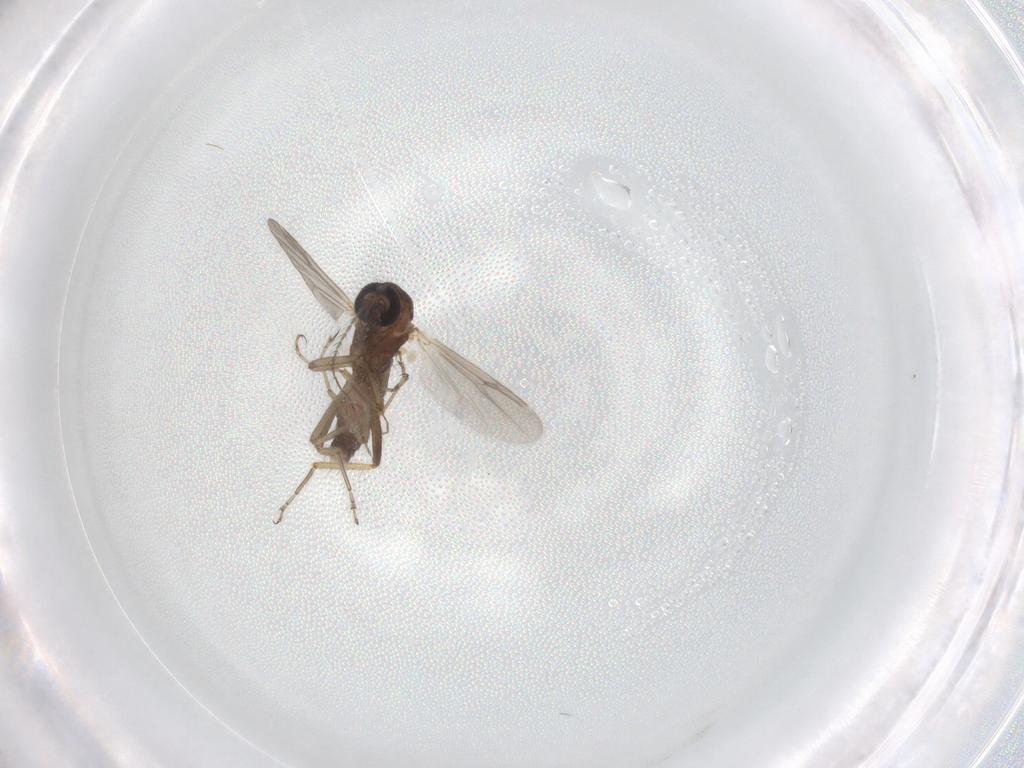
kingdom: Animalia
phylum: Arthropoda
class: Insecta
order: Diptera
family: Ceratopogonidae
